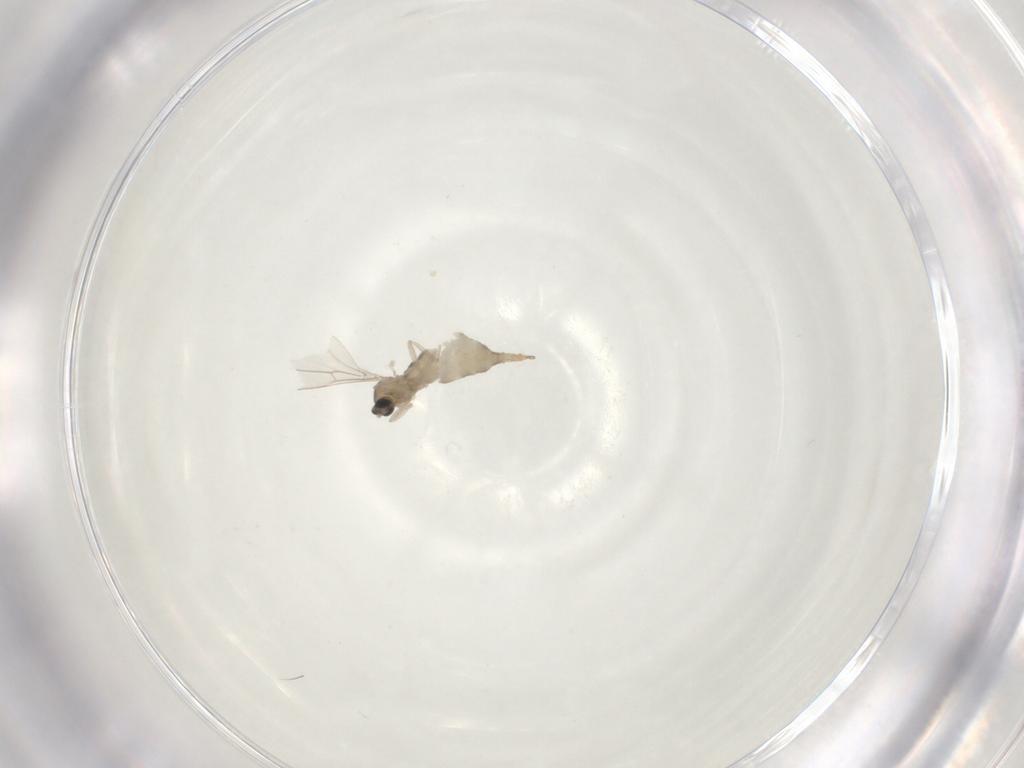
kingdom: Animalia
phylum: Arthropoda
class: Insecta
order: Diptera
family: Cecidomyiidae
